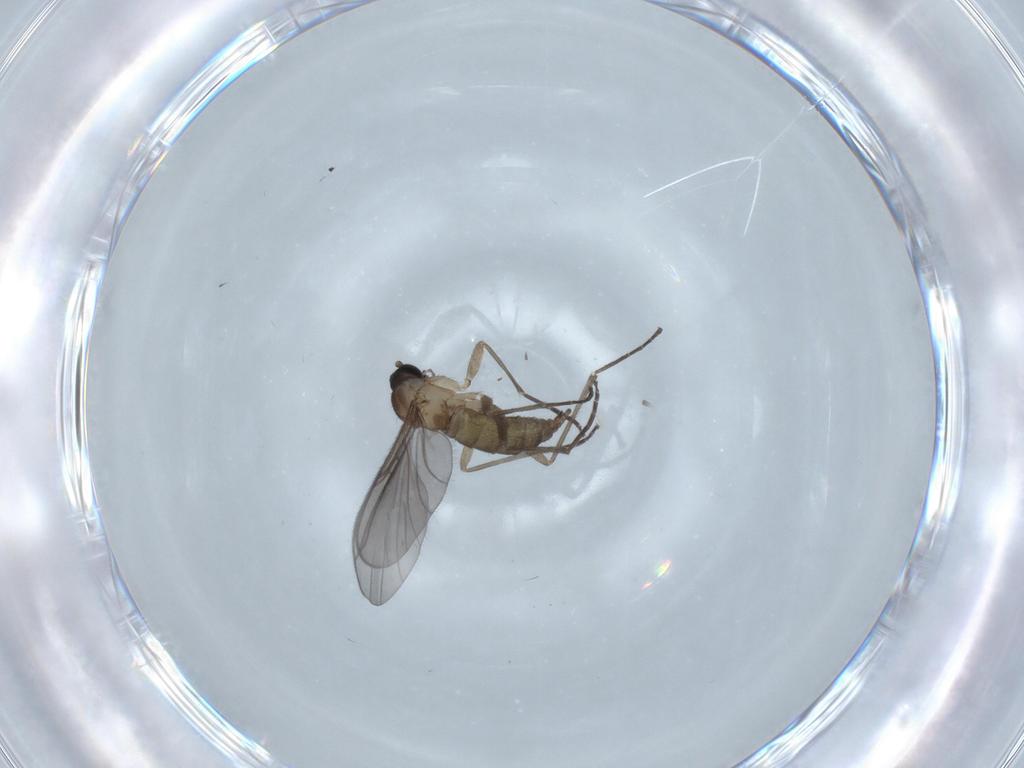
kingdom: Animalia
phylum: Arthropoda
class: Insecta
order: Diptera
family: Sciaridae
